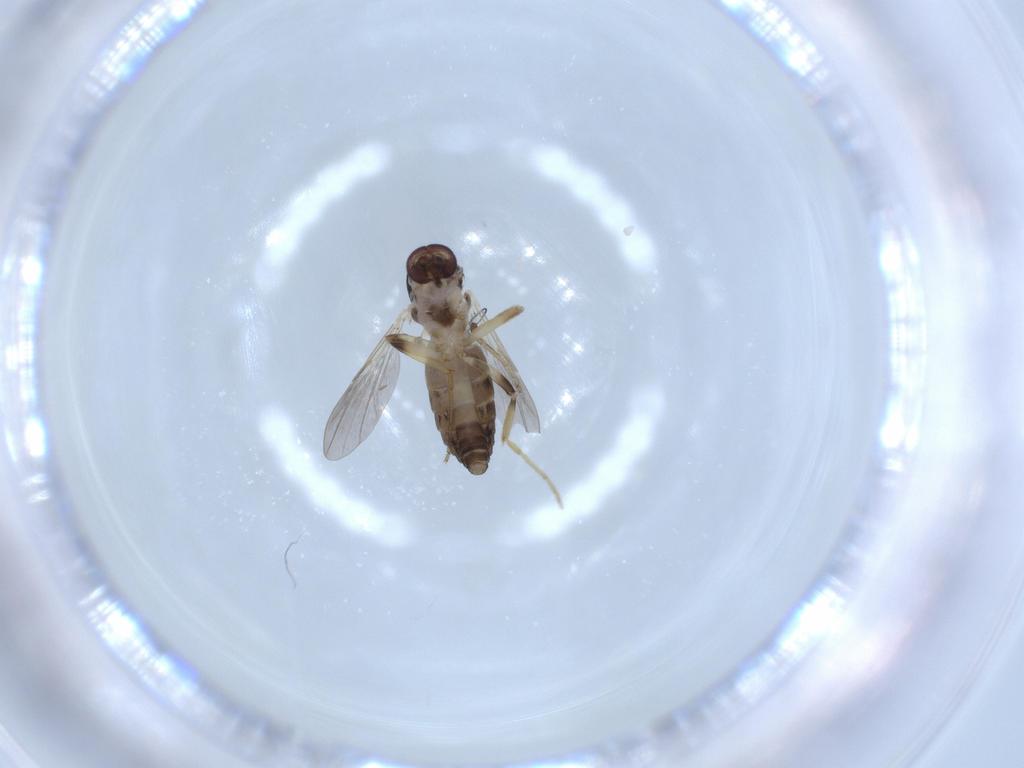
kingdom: Animalia
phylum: Arthropoda
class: Insecta
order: Diptera
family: Ceratopogonidae
